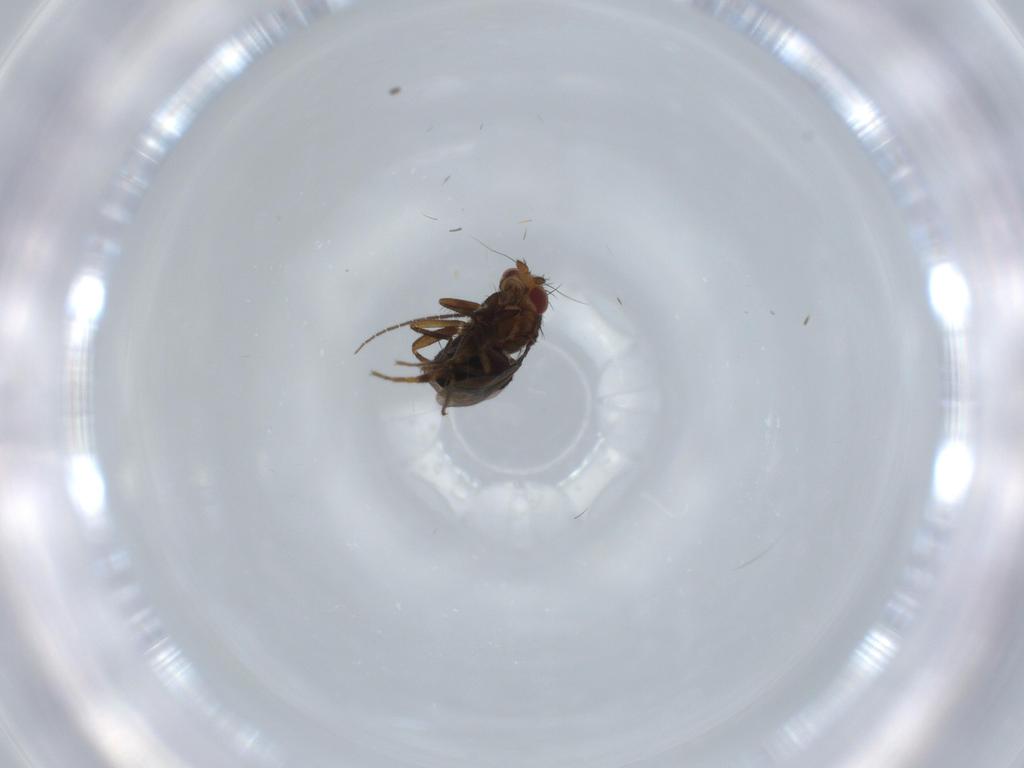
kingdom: Animalia
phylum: Arthropoda
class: Insecta
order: Diptera
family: Sphaeroceridae
